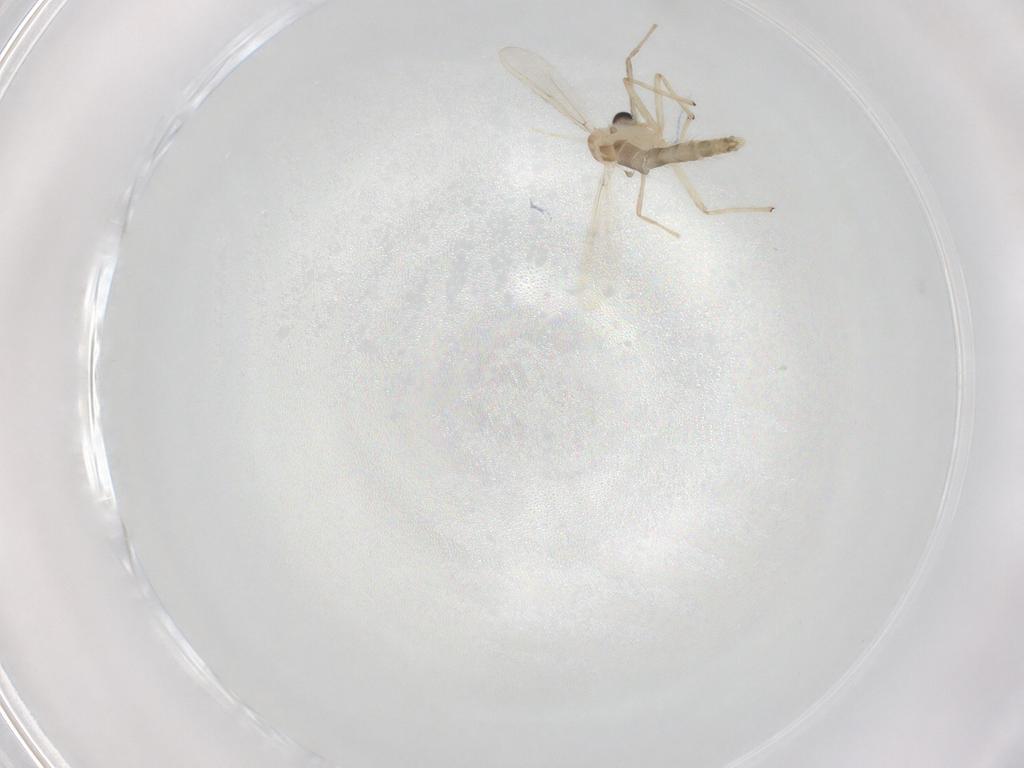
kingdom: Animalia
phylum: Arthropoda
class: Insecta
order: Diptera
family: Chironomidae
